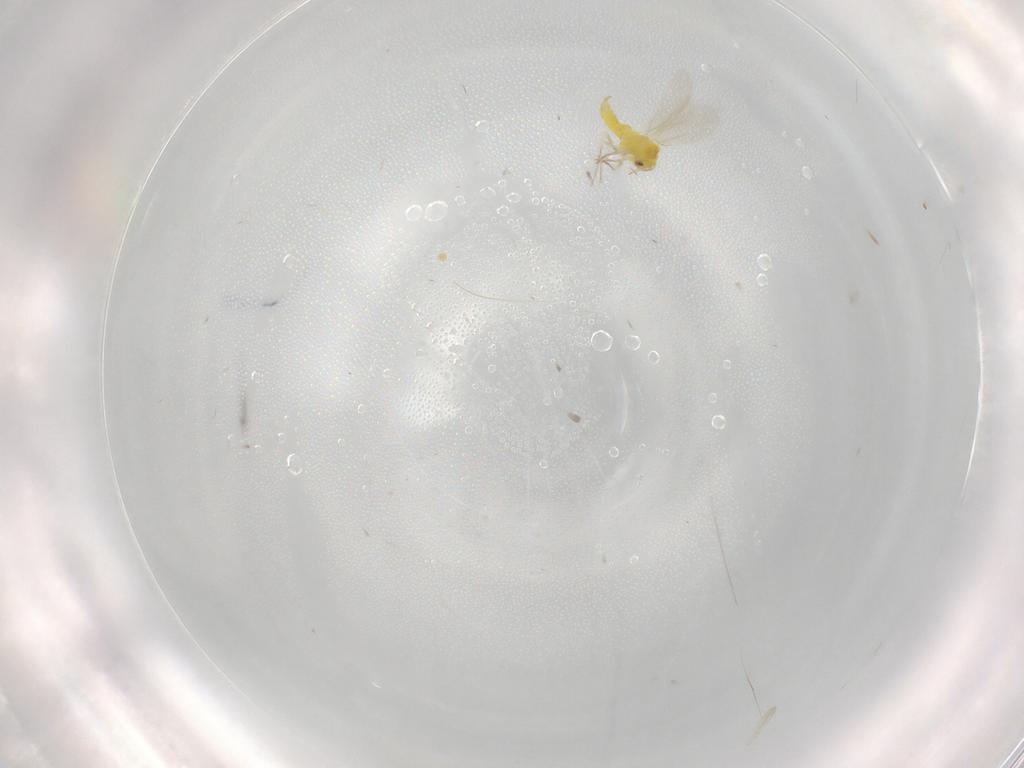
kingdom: Animalia
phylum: Arthropoda
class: Insecta
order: Hemiptera
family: Aleyrodidae
